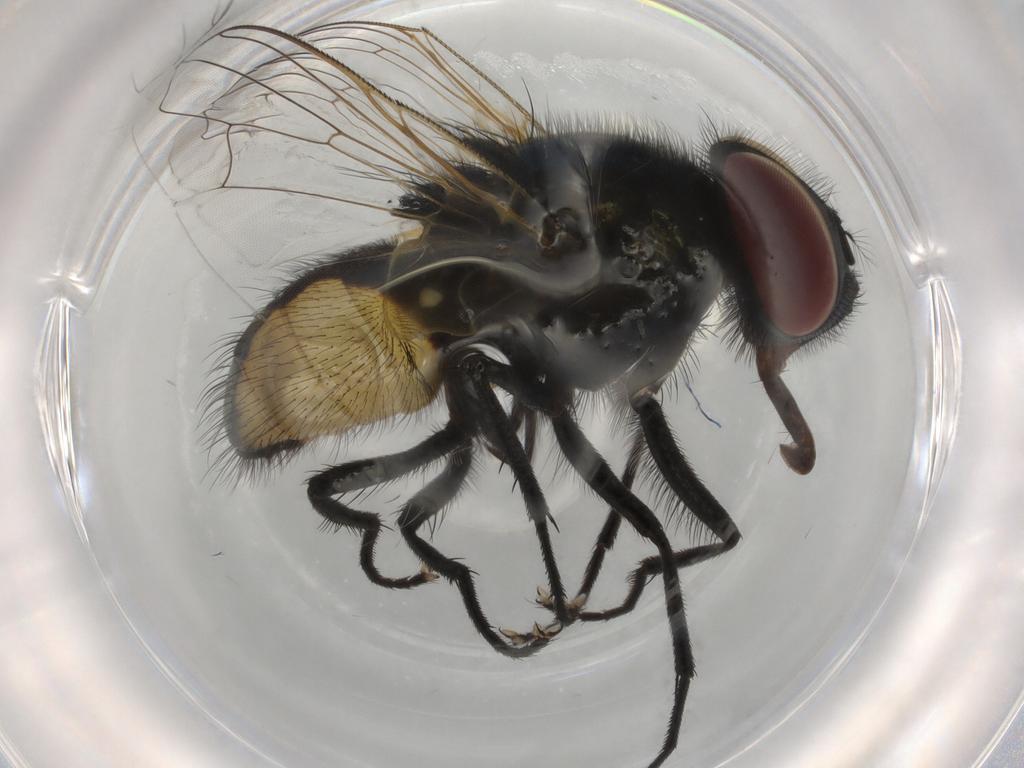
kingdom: Animalia
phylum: Arthropoda
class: Insecta
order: Diptera
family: Muscidae
